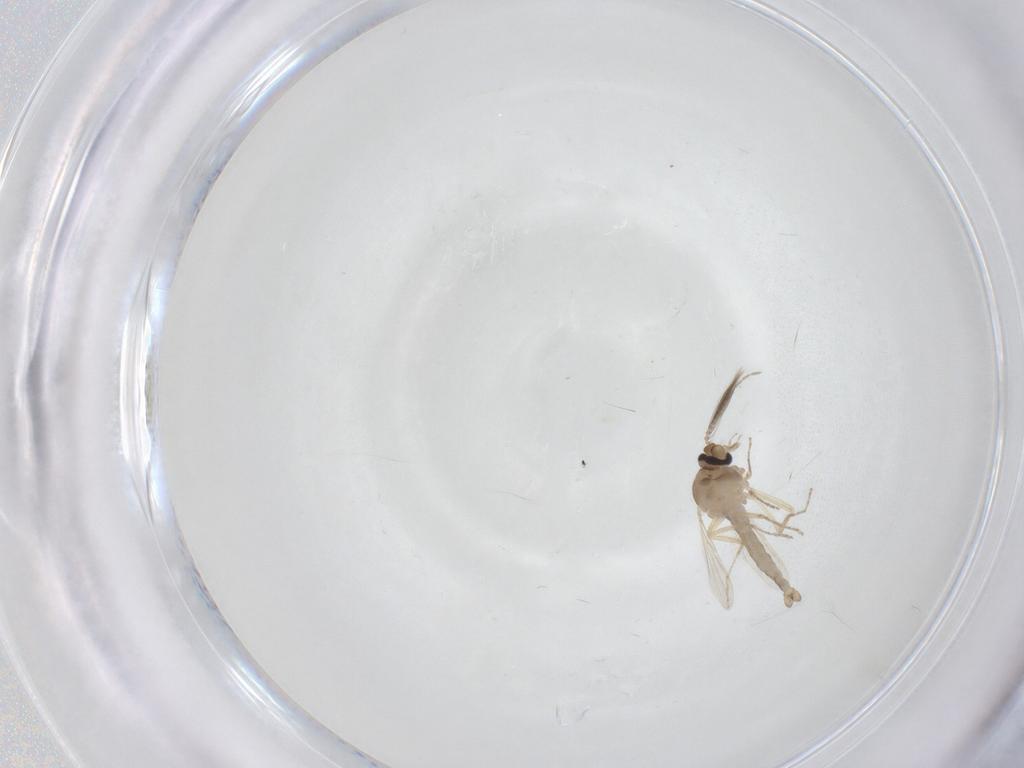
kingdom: Animalia
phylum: Arthropoda
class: Insecta
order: Diptera
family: Ceratopogonidae
